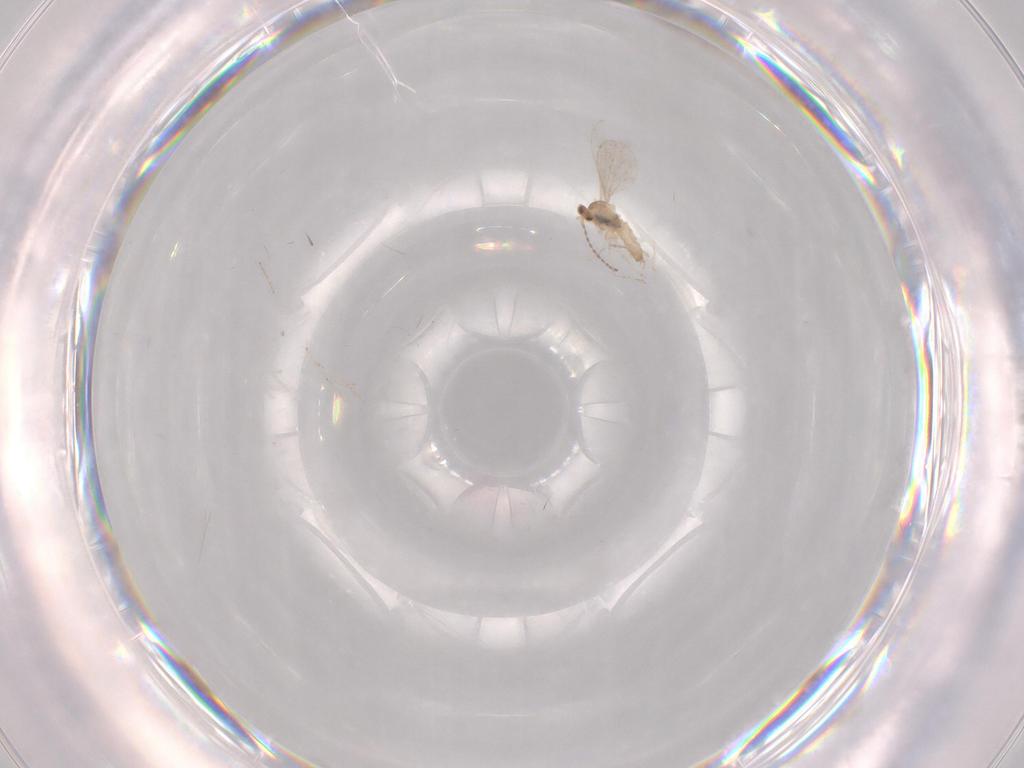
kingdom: Animalia
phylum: Arthropoda
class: Insecta
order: Diptera
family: Cecidomyiidae
